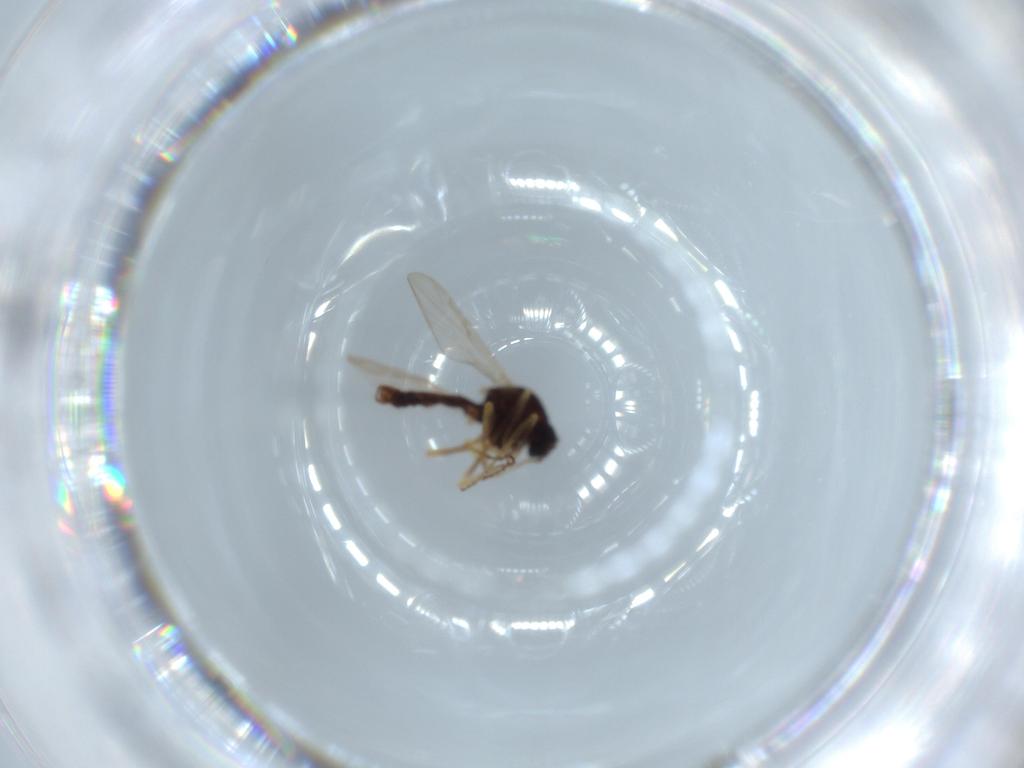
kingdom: Animalia
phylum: Arthropoda
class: Insecta
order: Diptera
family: Ceratopogonidae
